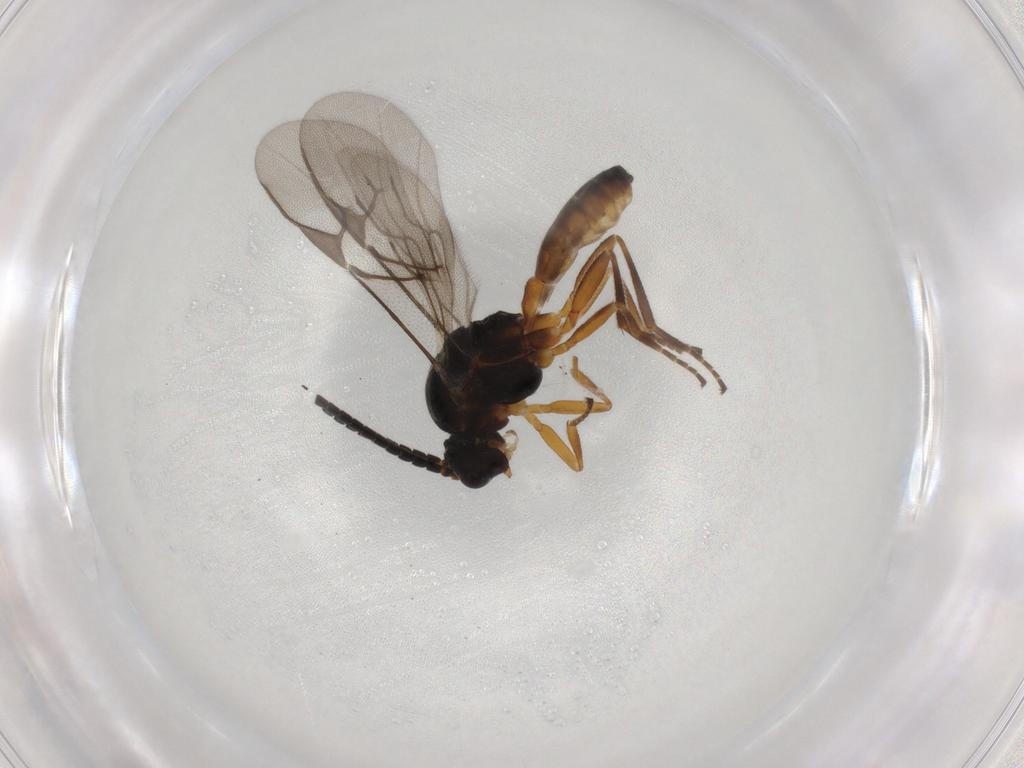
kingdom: Animalia
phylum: Arthropoda
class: Insecta
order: Hymenoptera
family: Braconidae
